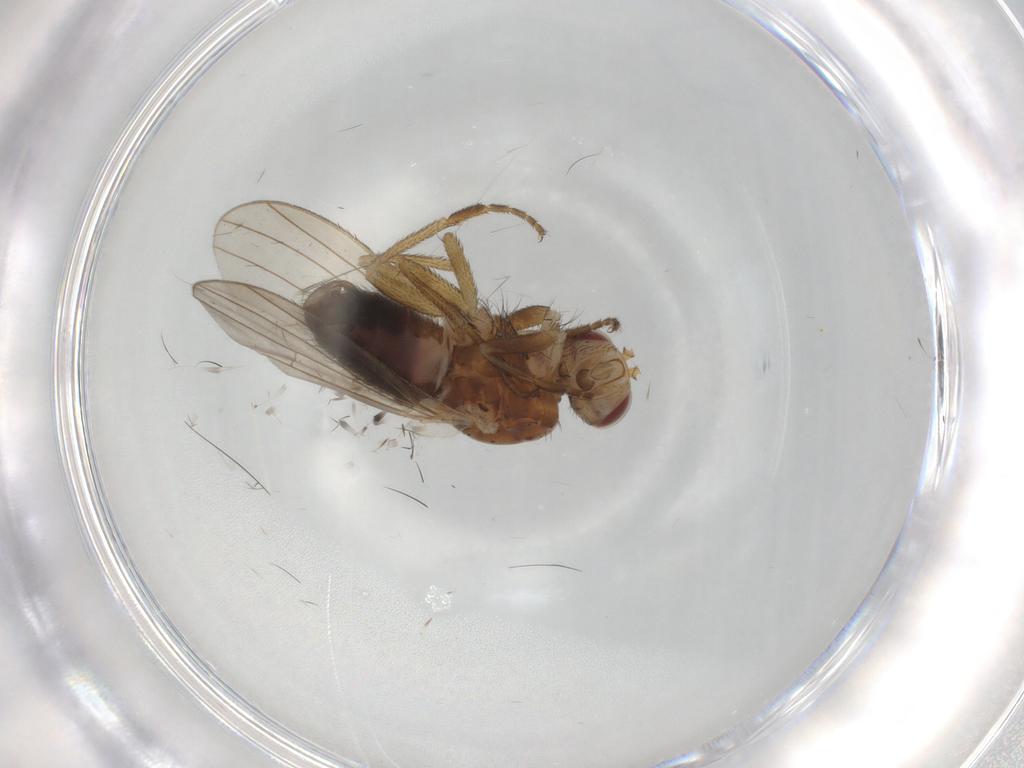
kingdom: Animalia
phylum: Arthropoda
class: Insecta
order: Diptera
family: Heleomyzidae
